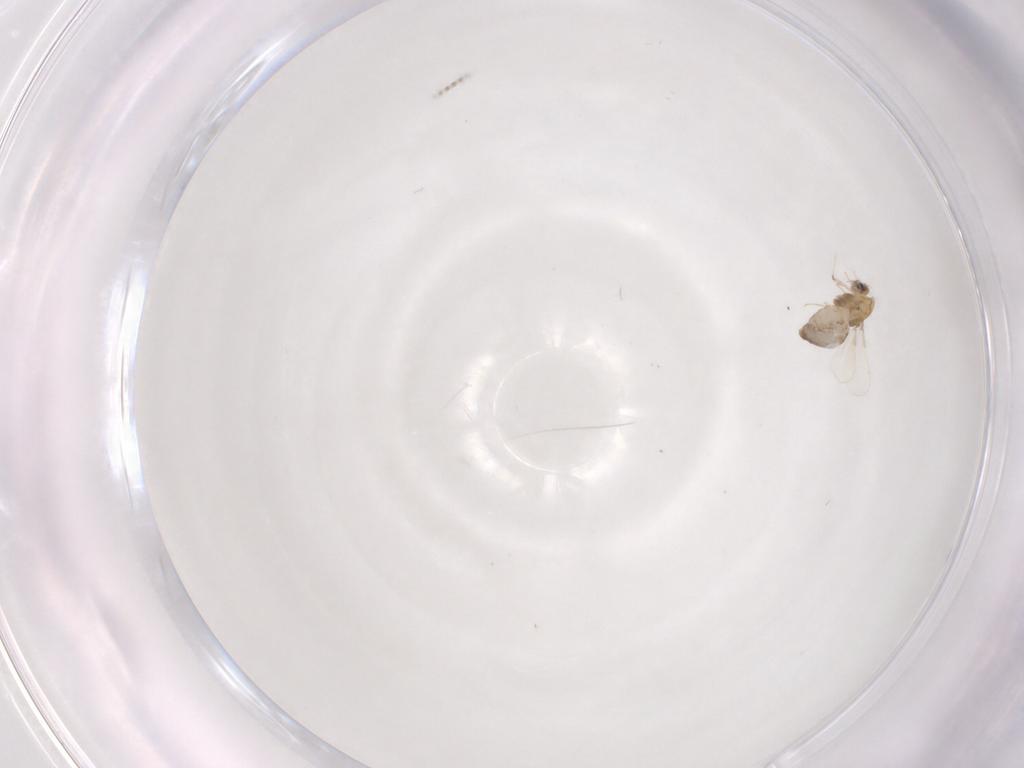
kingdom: Animalia
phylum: Arthropoda
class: Insecta
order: Diptera
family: Chironomidae
